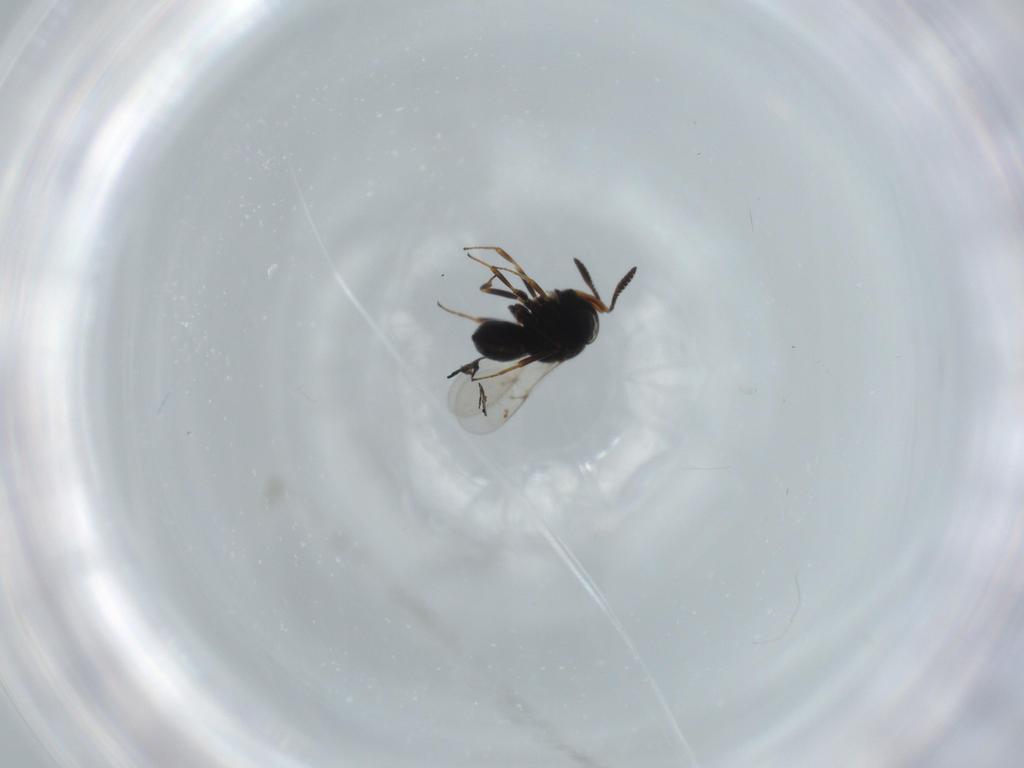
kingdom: Animalia
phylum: Arthropoda
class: Insecta
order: Hymenoptera
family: Scelionidae
